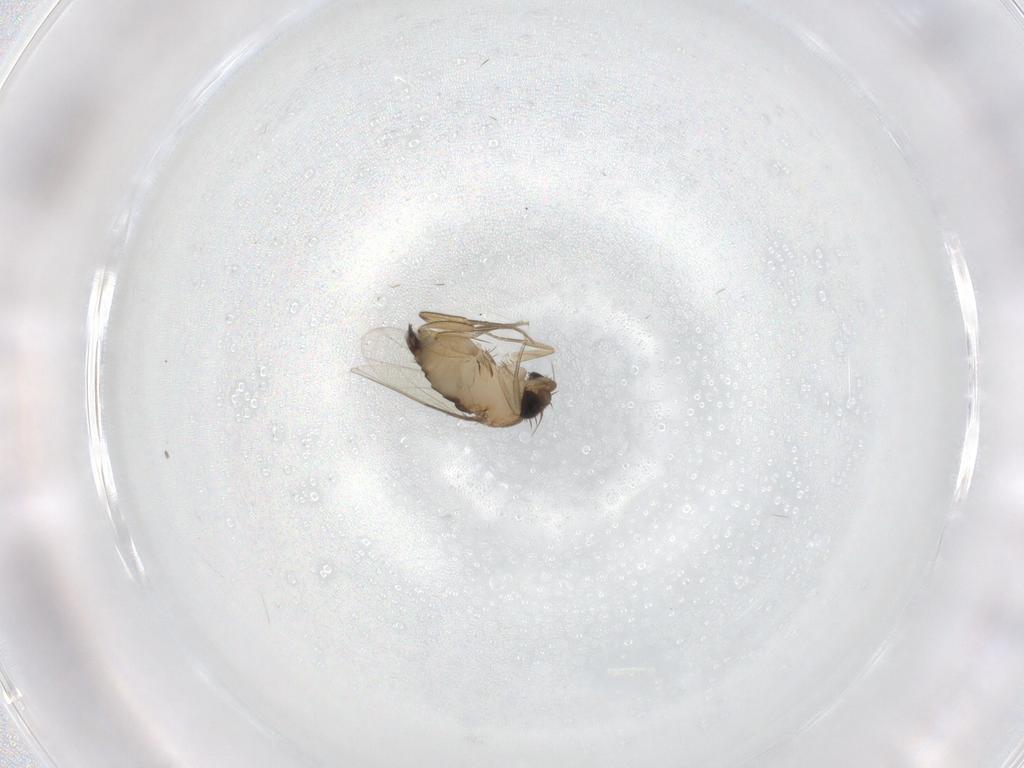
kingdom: Animalia
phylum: Arthropoda
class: Insecta
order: Diptera
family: Phoridae
